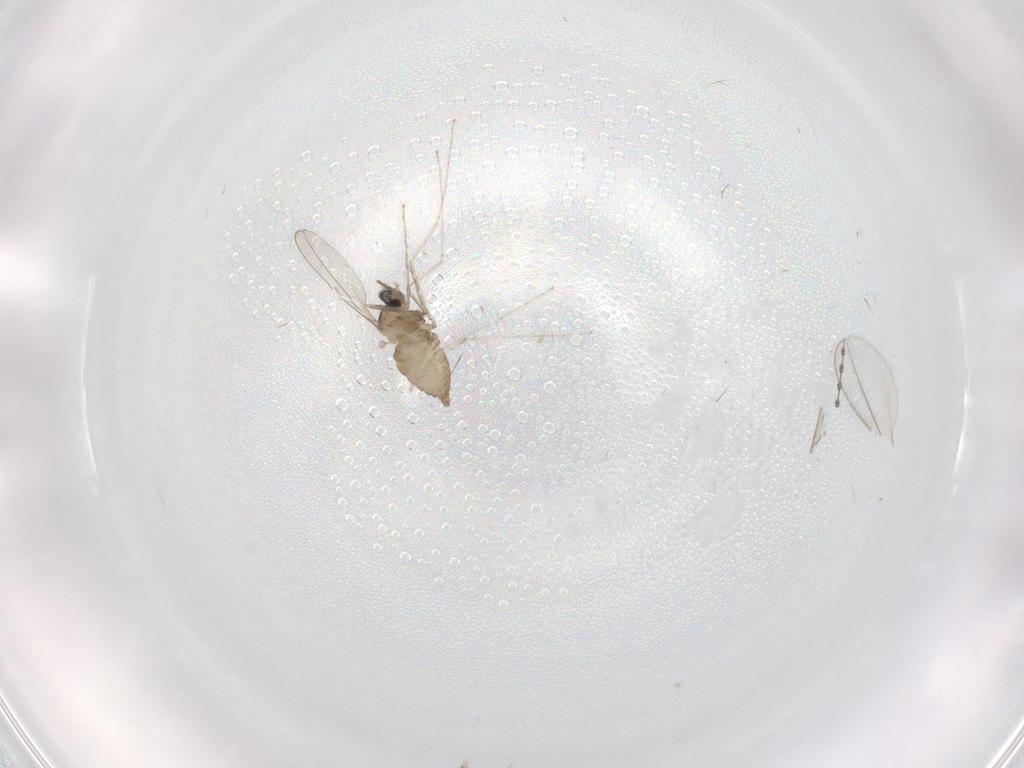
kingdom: Animalia
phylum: Arthropoda
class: Insecta
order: Diptera
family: Cecidomyiidae
